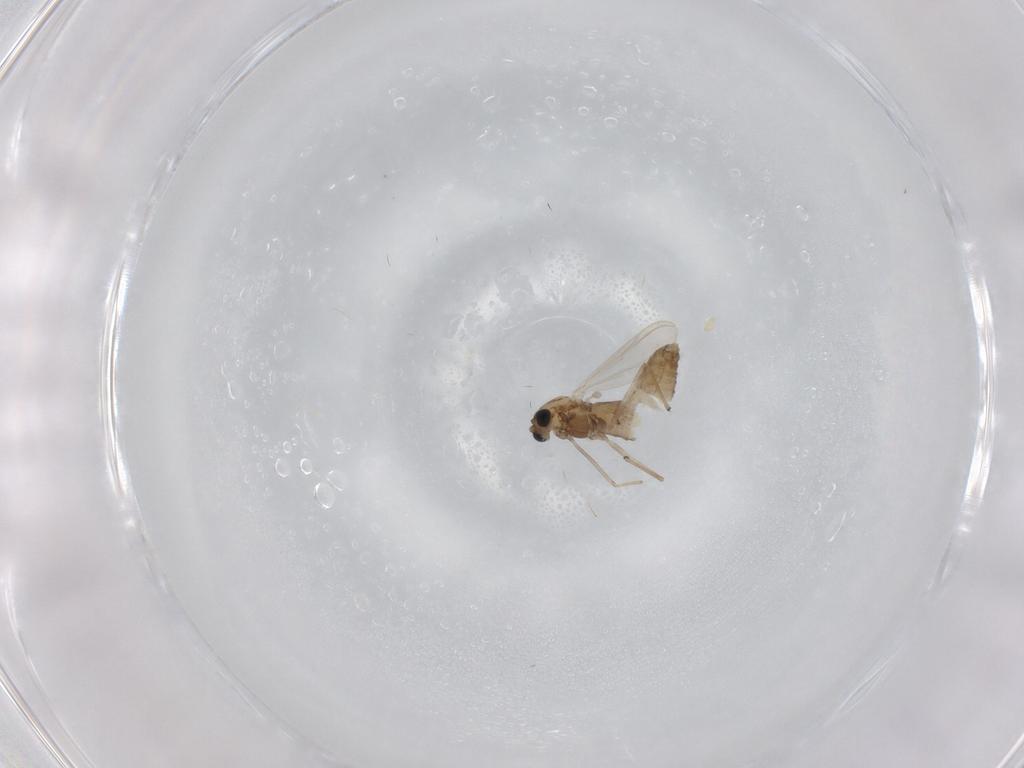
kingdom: Animalia
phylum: Arthropoda
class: Insecta
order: Diptera
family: Chironomidae
